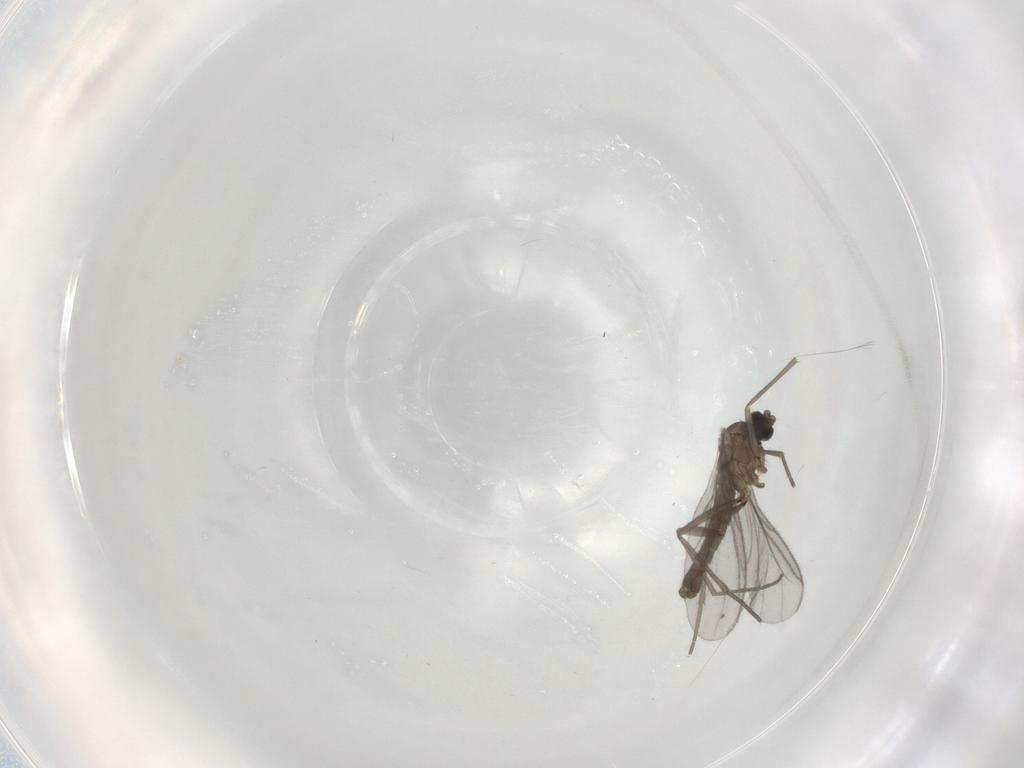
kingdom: Animalia
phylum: Arthropoda
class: Insecta
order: Diptera
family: Sciaridae
